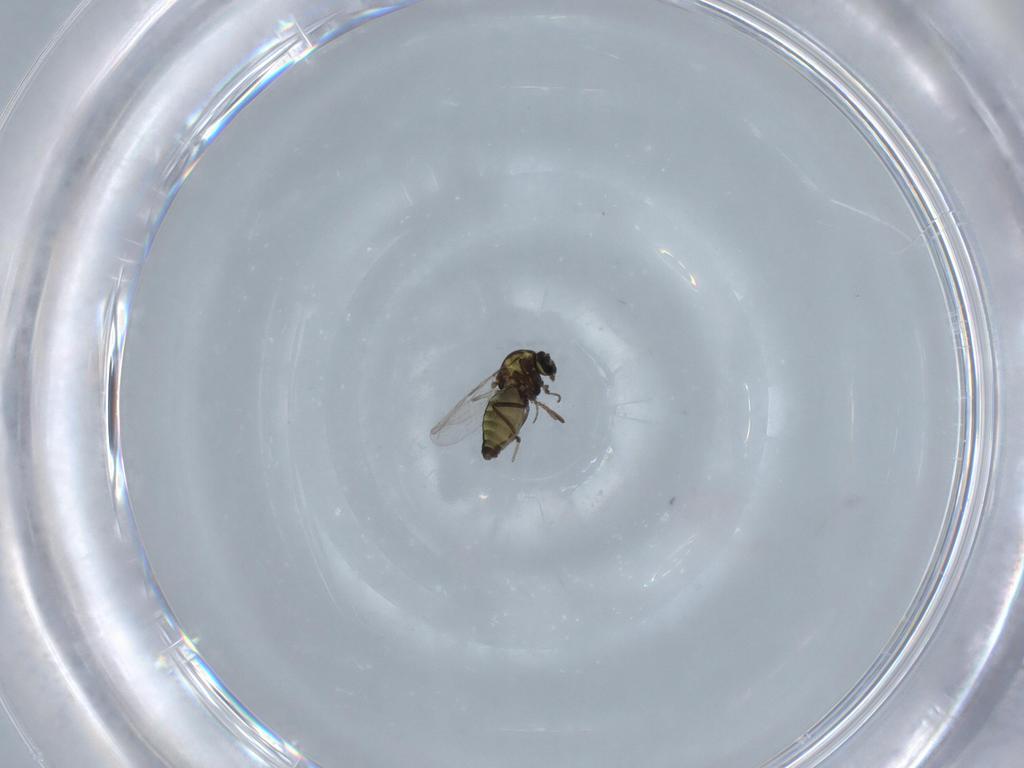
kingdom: Animalia
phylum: Arthropoda
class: Insecta
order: Diptera
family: Ceratopogonidae
